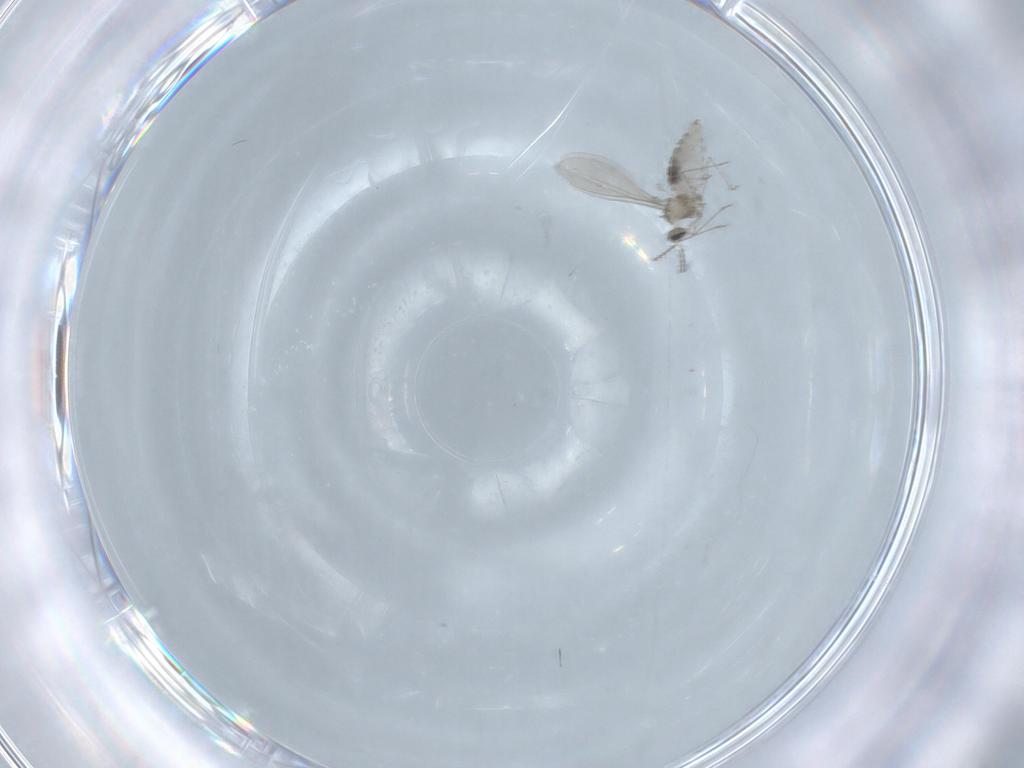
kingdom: Animalia
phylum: Arthropoda
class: Insecta
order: Diptera
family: Cecidomyiidae
